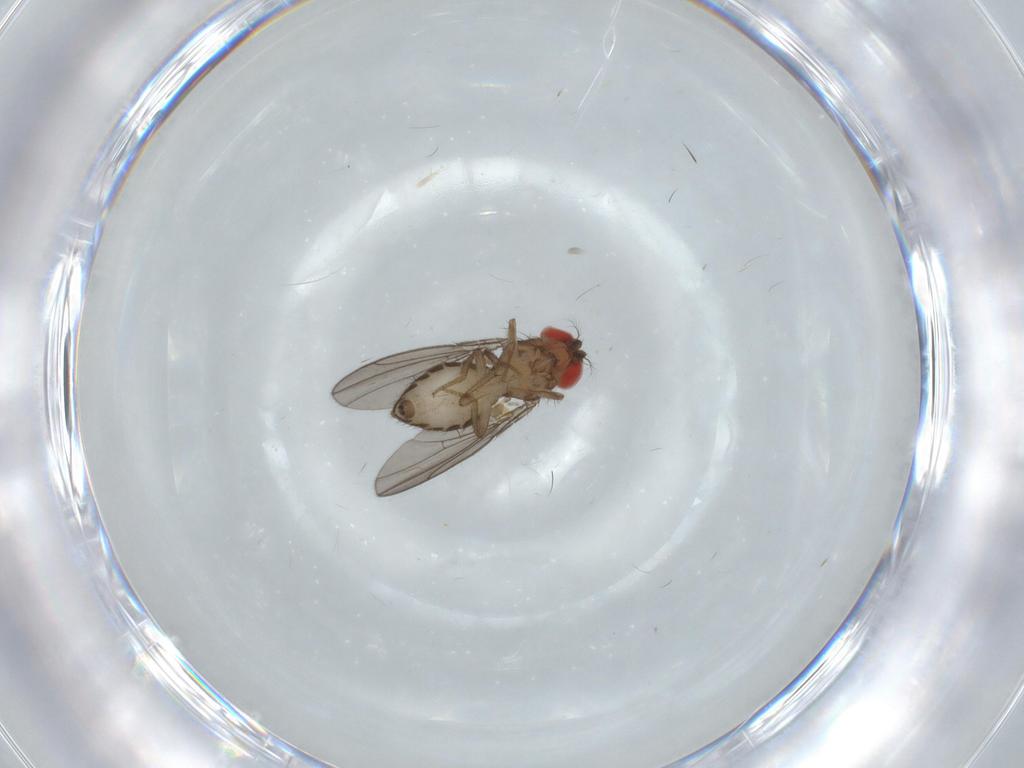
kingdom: Animalia
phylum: Arthropoda
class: Insecta
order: Diptera
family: Drosophilidae
